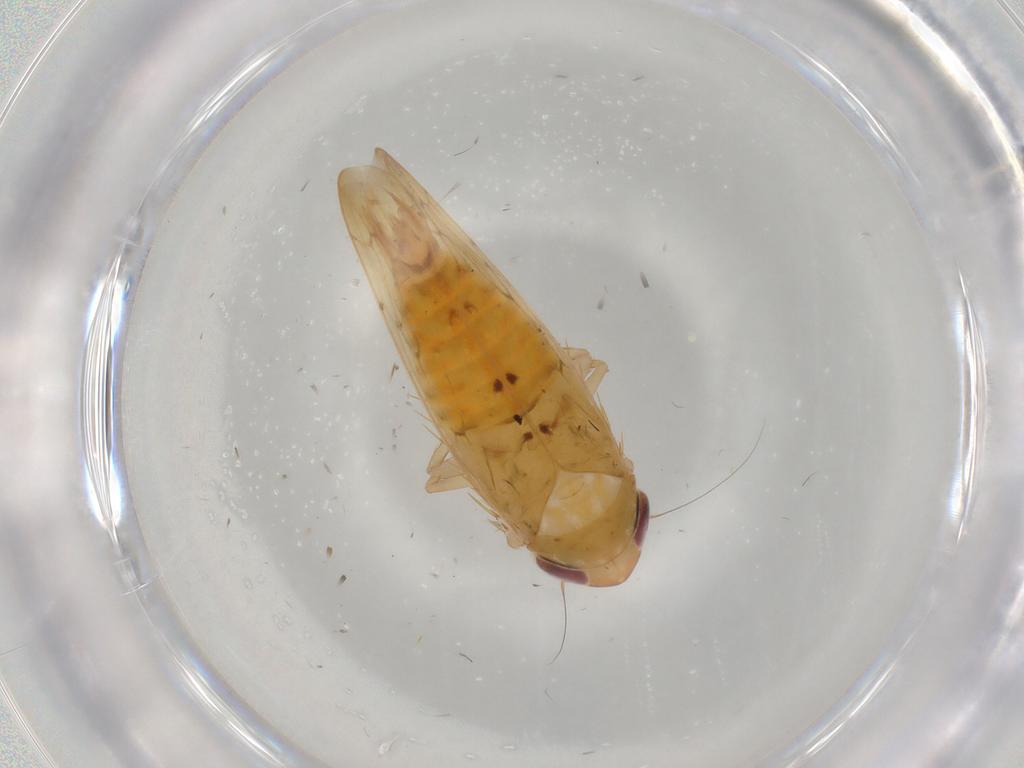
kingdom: Animalia
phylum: Arthropoda
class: Insecta
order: Hemiptera
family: Cicadellidae
